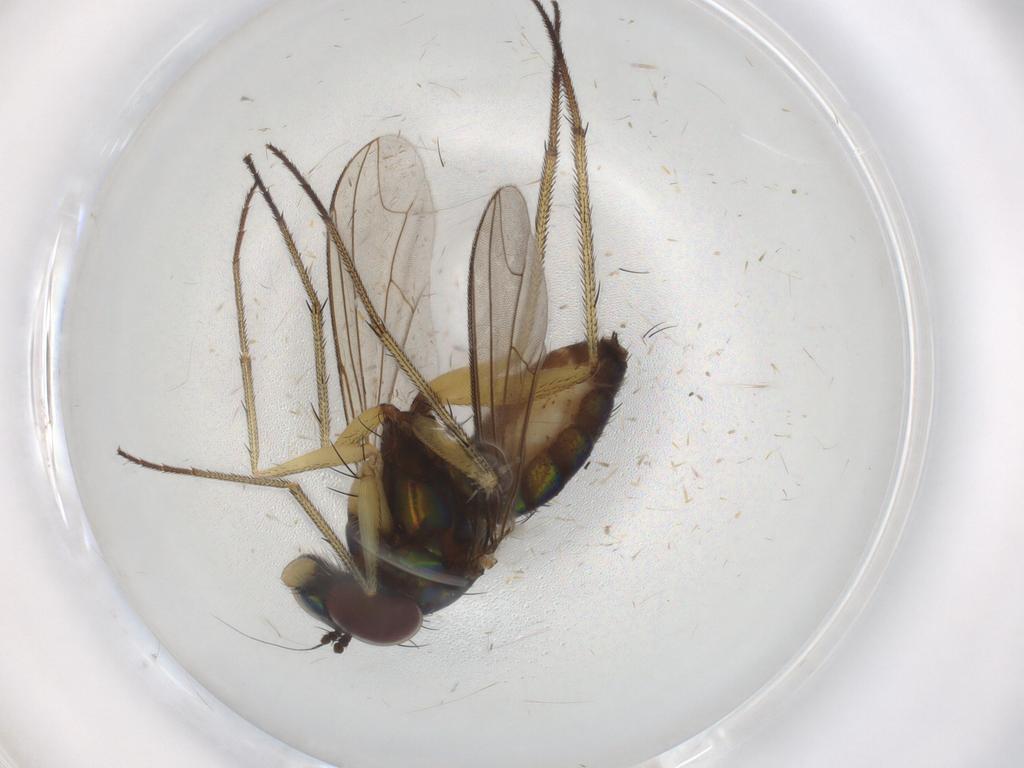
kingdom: Animalia
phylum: Arthropoda
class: Insecta
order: Diptera
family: Dolichopodidae
